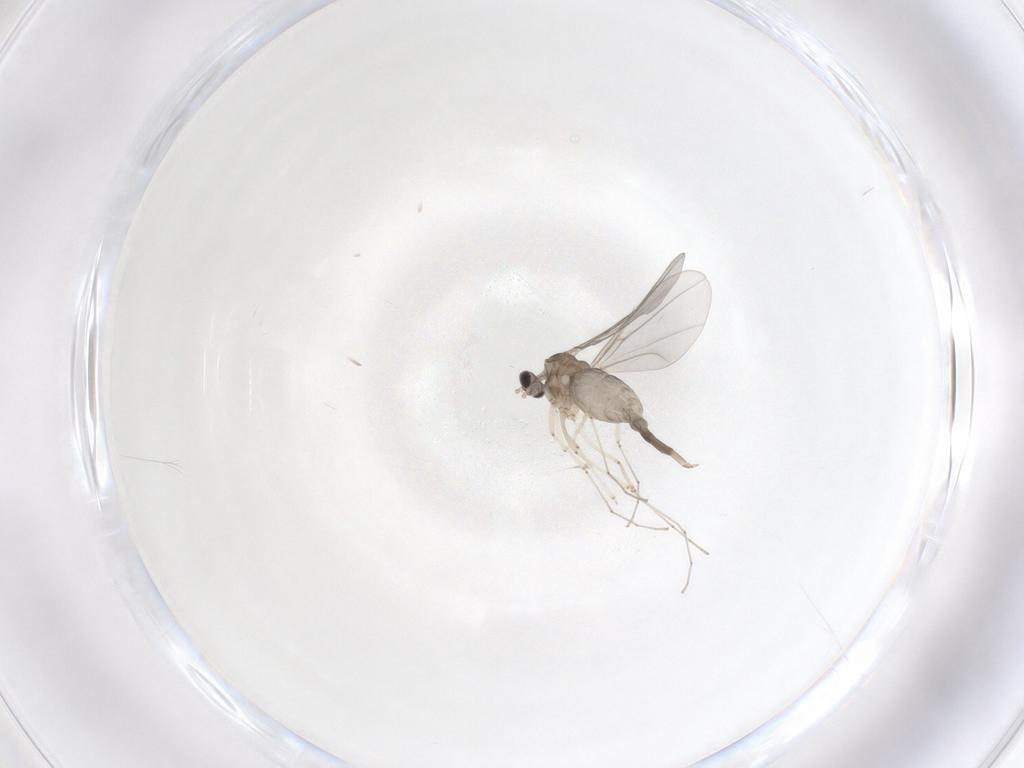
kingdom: Animalia
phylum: Arthropoda
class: Insecta
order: Diptera
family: Cecidomyiidae
